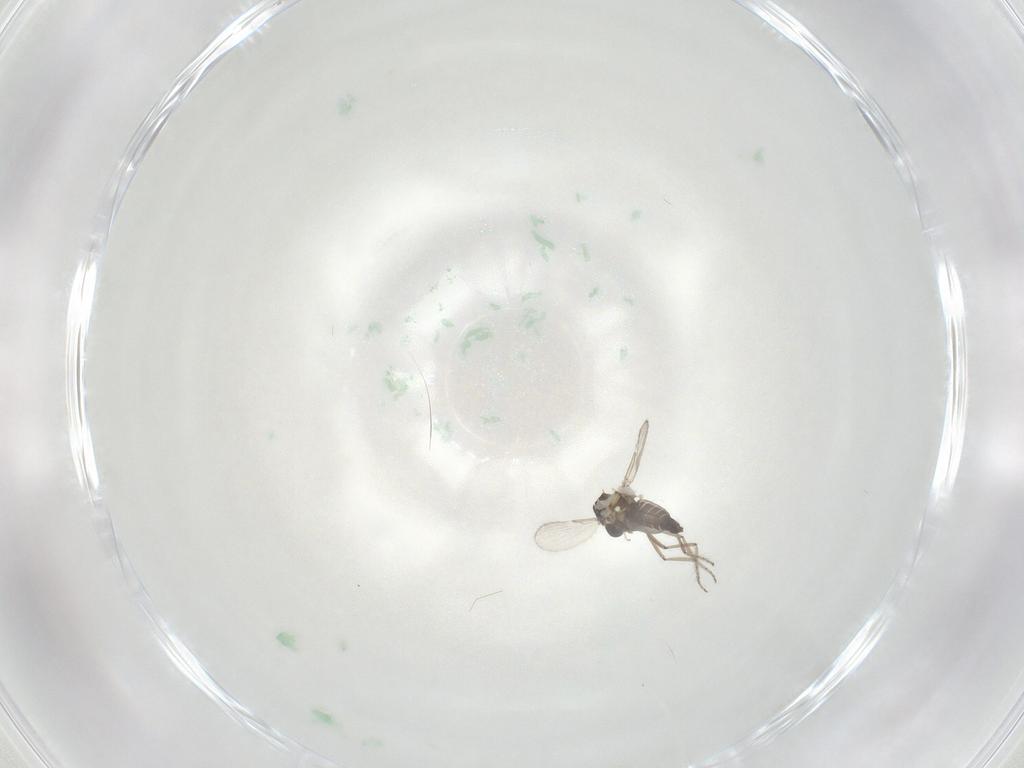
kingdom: Animalia
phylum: Arthropoda
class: Insecta
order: Diptera
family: Ceratopogonidae
